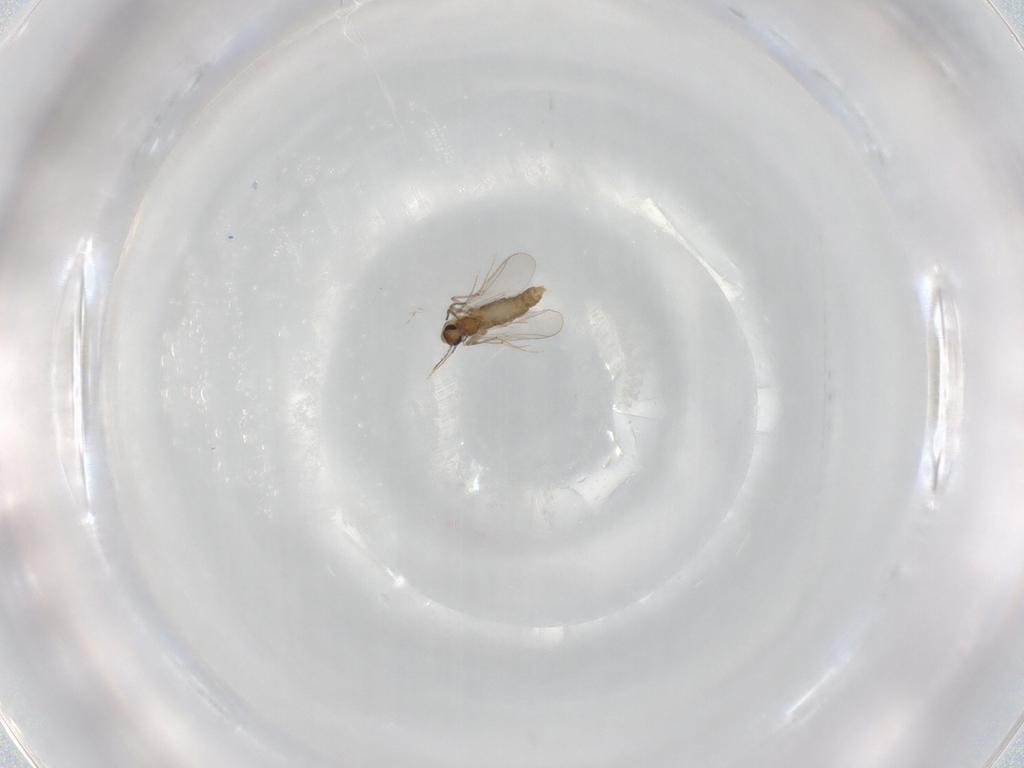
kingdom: Animalia
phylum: Arthropoda
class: Insecta
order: Diptera
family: Chironomidae
